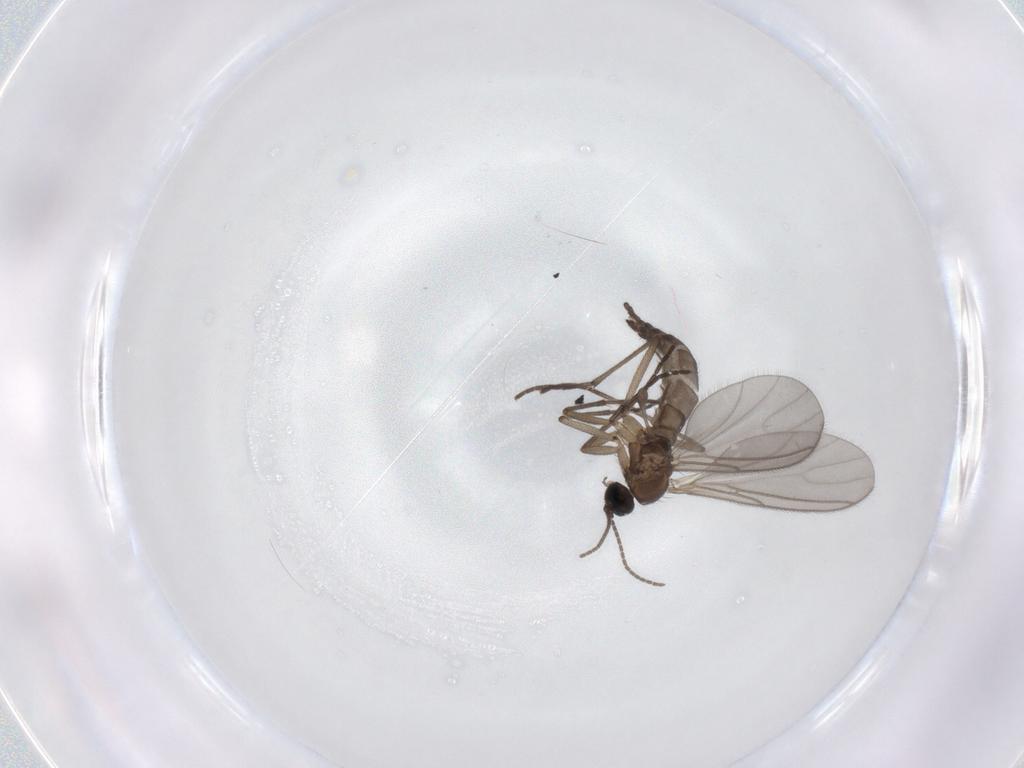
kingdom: Animalia
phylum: Arthropoda
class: Insecta
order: Diptera
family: Sciaridae
